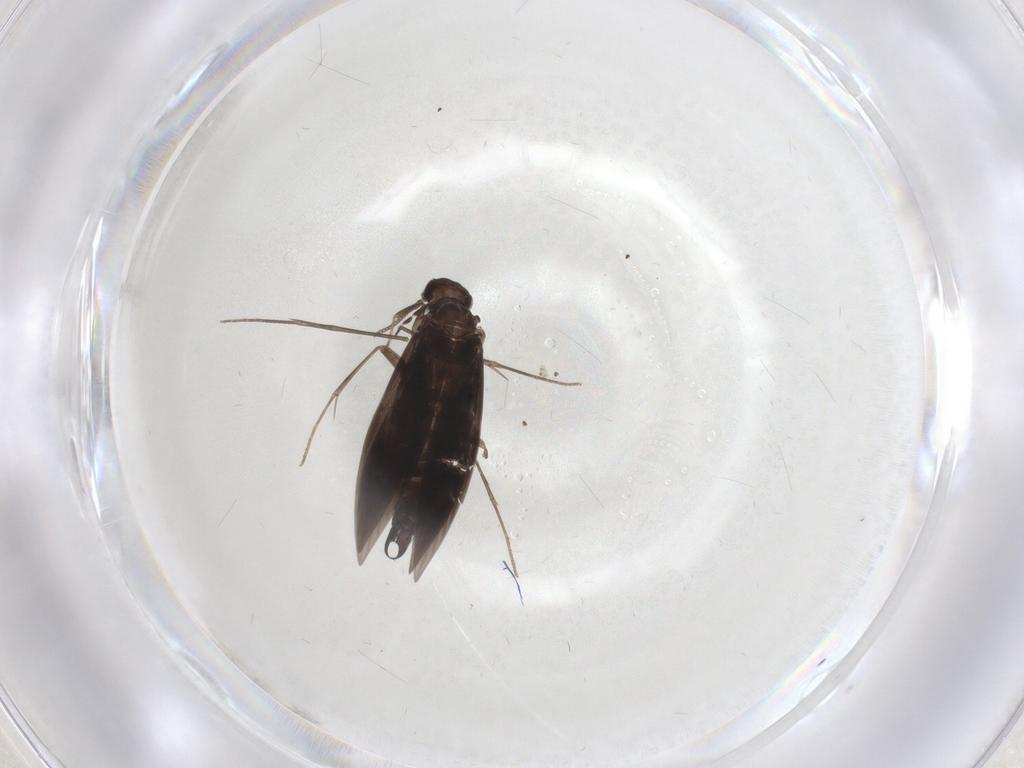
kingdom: Animalia
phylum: Arthropoda
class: Insecta
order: Trichoptera
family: Hydroptilidae
